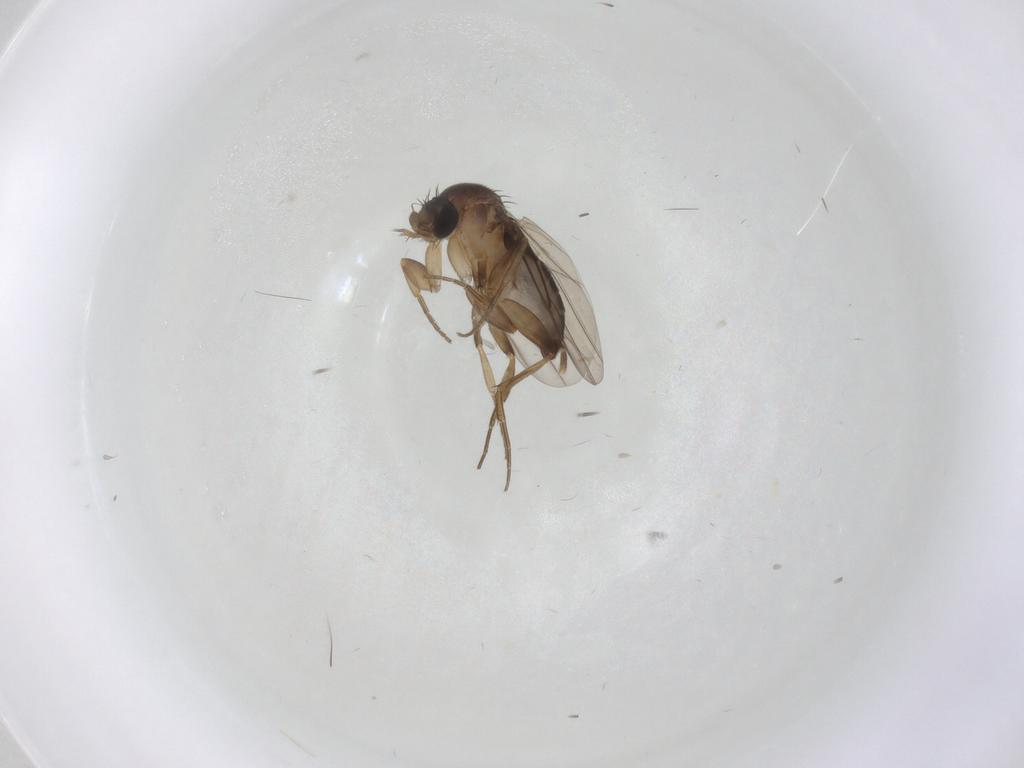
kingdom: Animalia
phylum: Arthropoda
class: Insecta
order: Diptera
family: Phoridae
